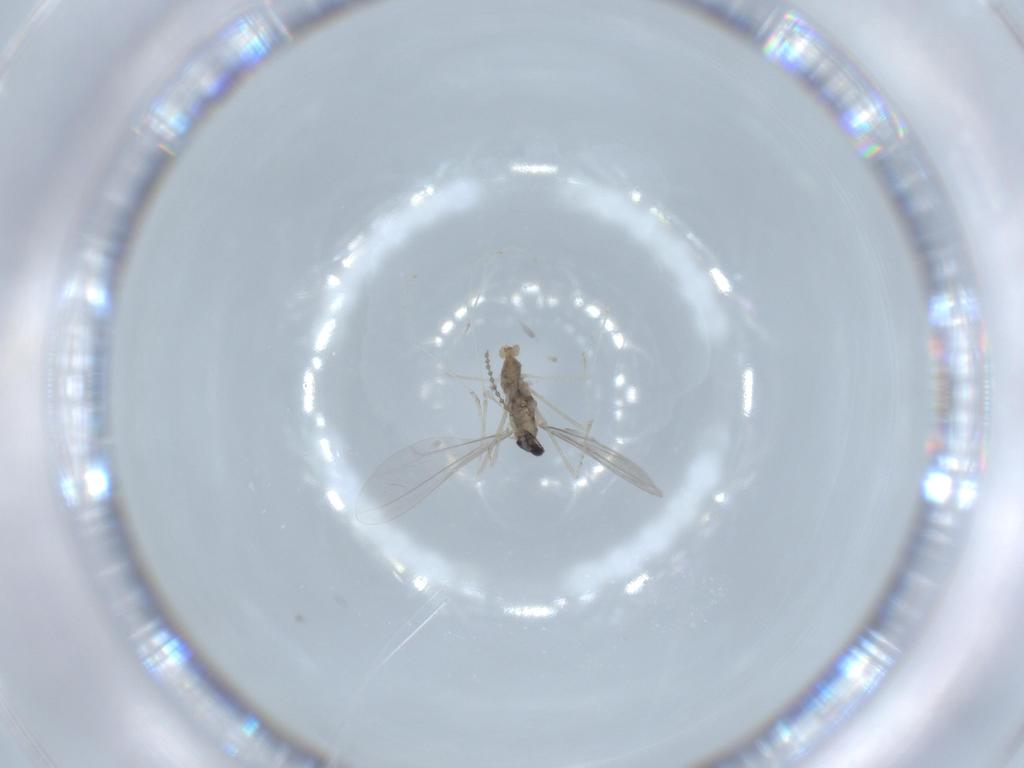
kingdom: Animalia
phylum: Arthropoda
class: Insecta
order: Diptera
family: Cecidomyiidae
